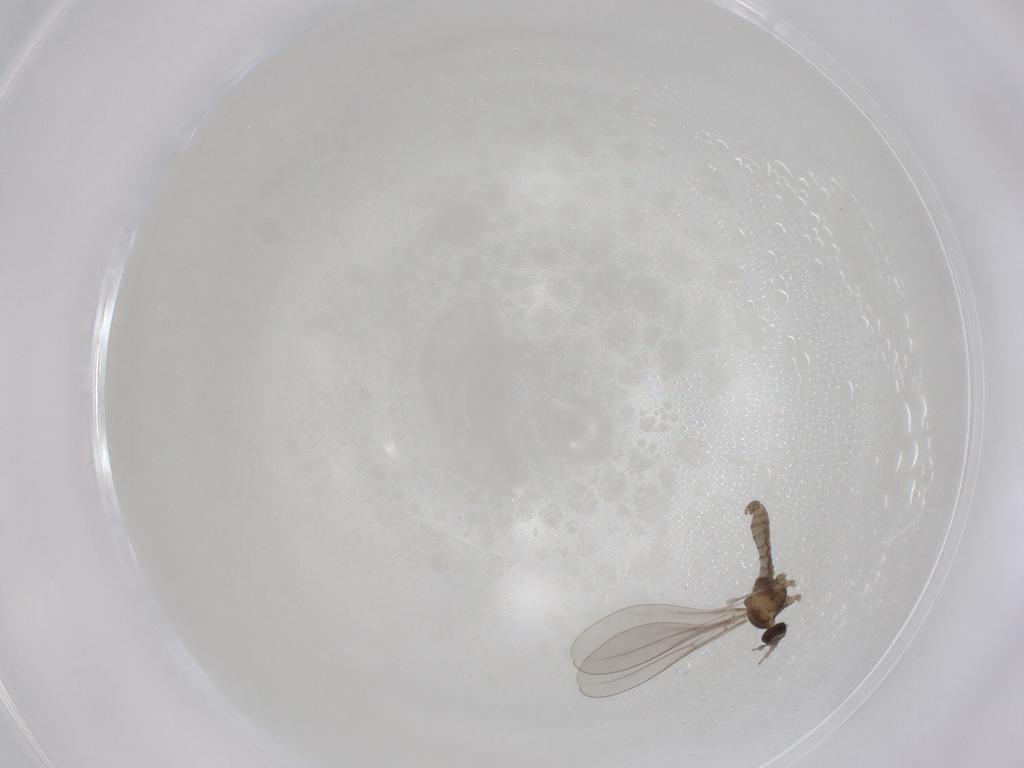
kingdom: Animalia
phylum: Arthropoda
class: Insecta
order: Diptera
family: Cecidomyiidae
